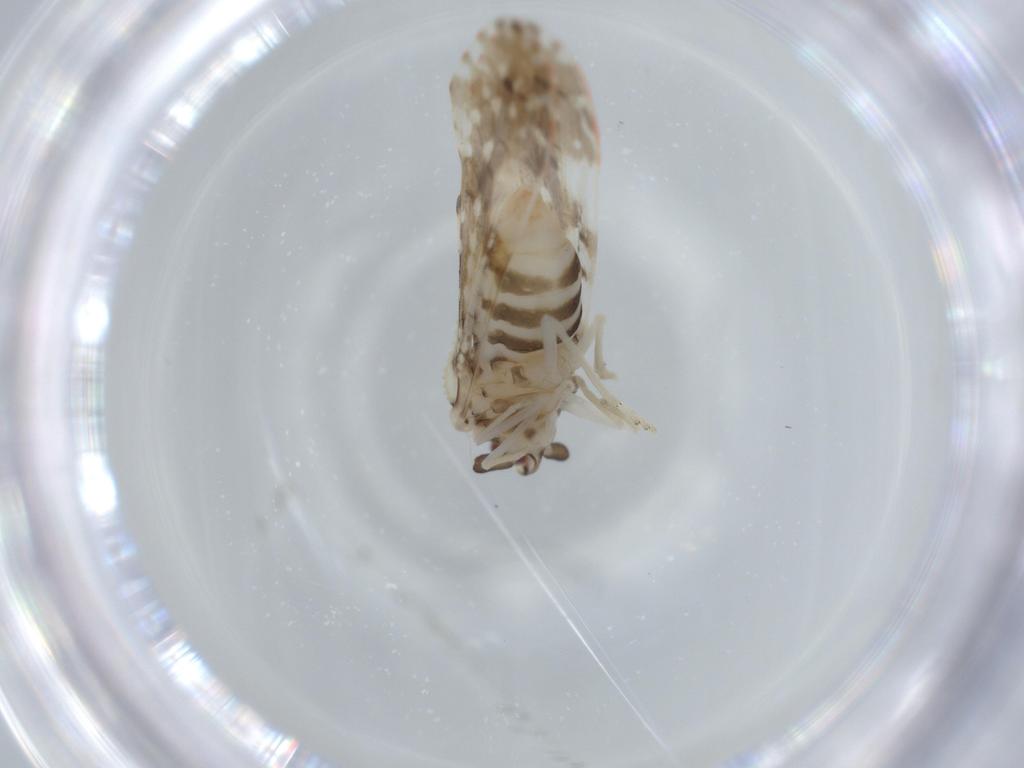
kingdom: Animalia
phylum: Arthropoda
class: Insecta
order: Hemiptera
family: Derbidae
